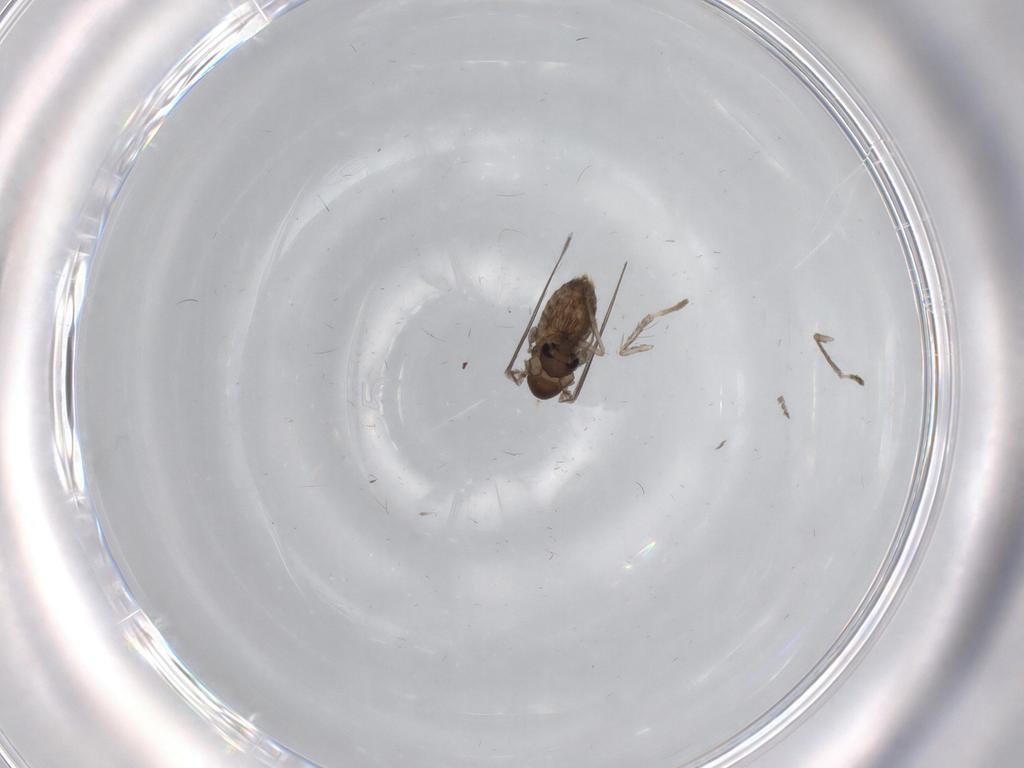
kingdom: Animalia
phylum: Arthropoda
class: Insecta
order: Diptera
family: Psychodidae
